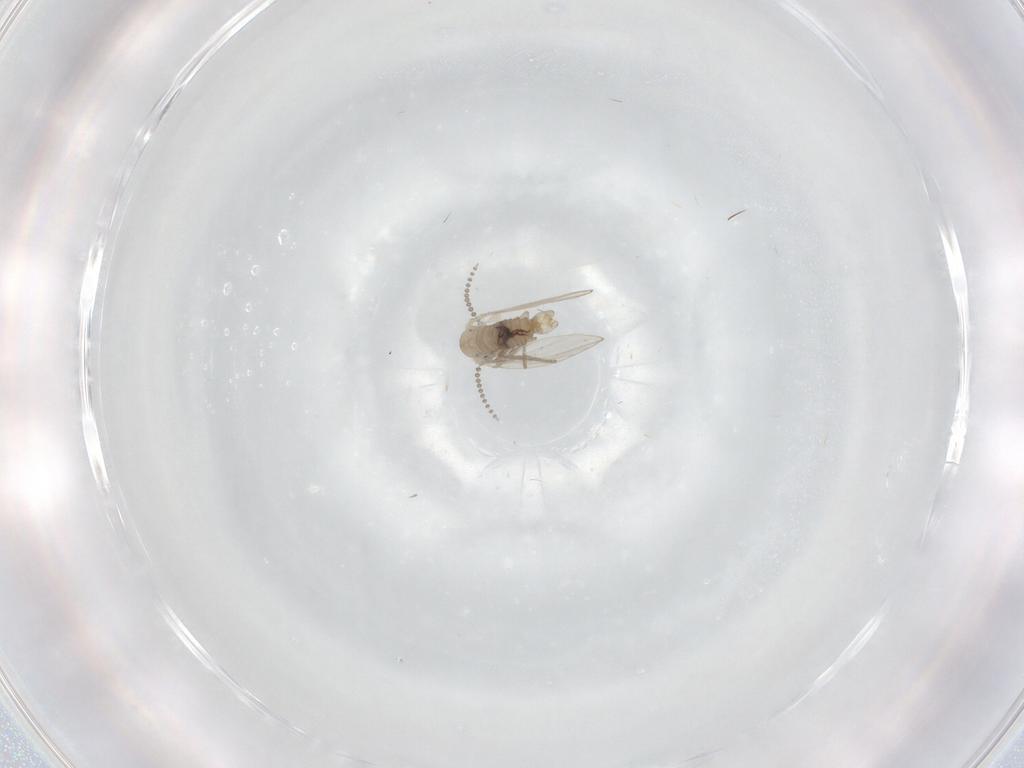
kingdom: Animalia
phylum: Arthropoda
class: Insecta
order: Diptera
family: Psychodidae
